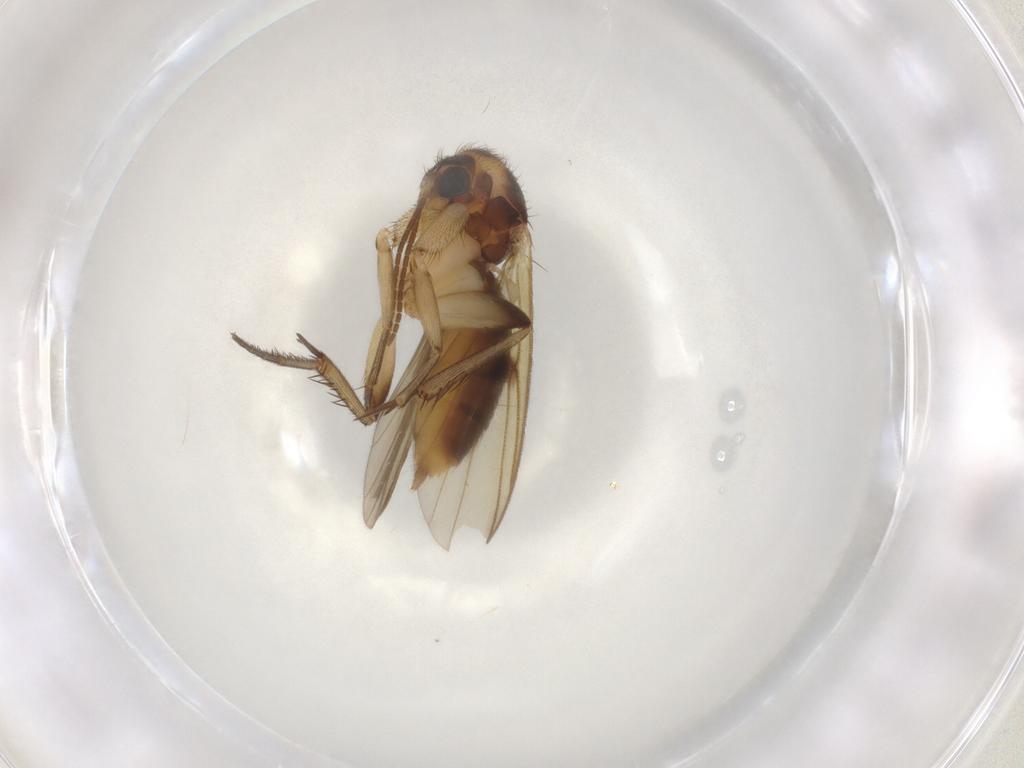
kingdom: Animalia
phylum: Arthropoda
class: Insecta
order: Diptera
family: Mycetophilidae
